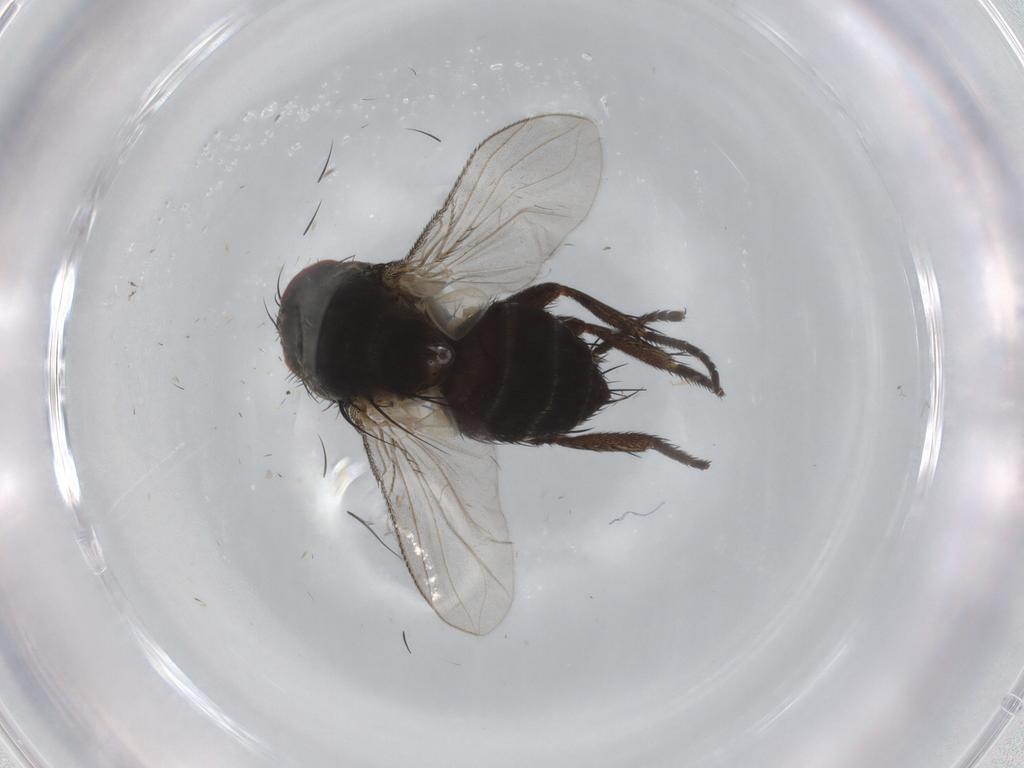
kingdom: Animalia
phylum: Arthropoda
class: Insecta
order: Diptera
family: Tachinidae
